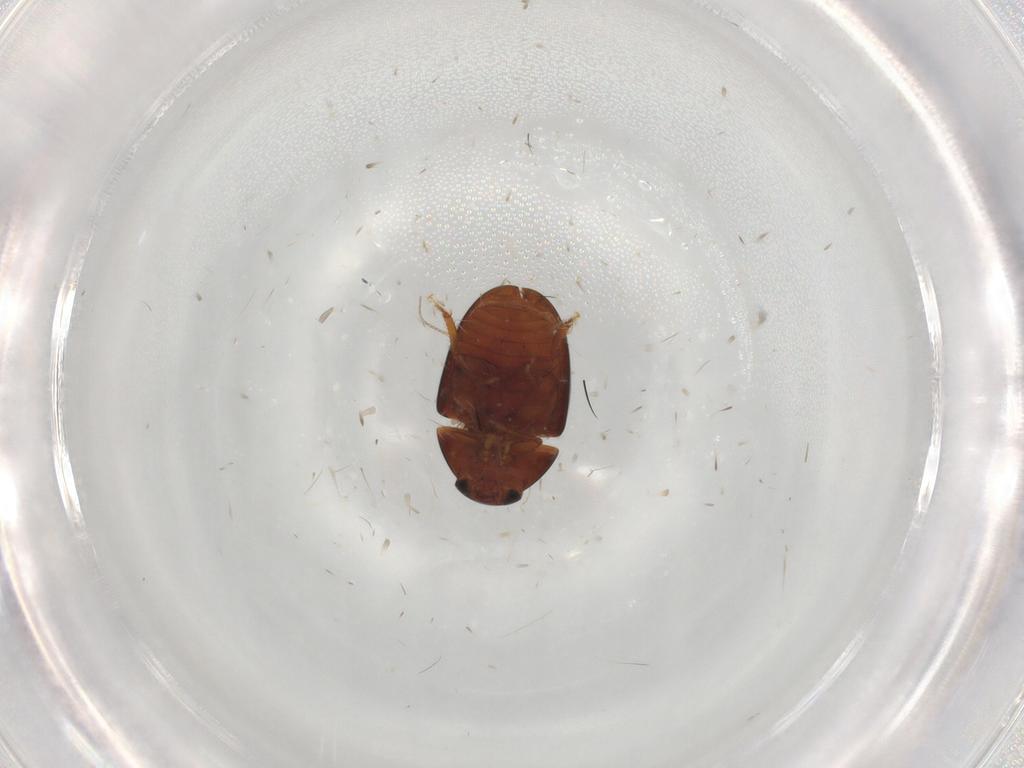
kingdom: Animalia
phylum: Arthropoda
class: Insecta
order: Coleoptera
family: Phalacridae
